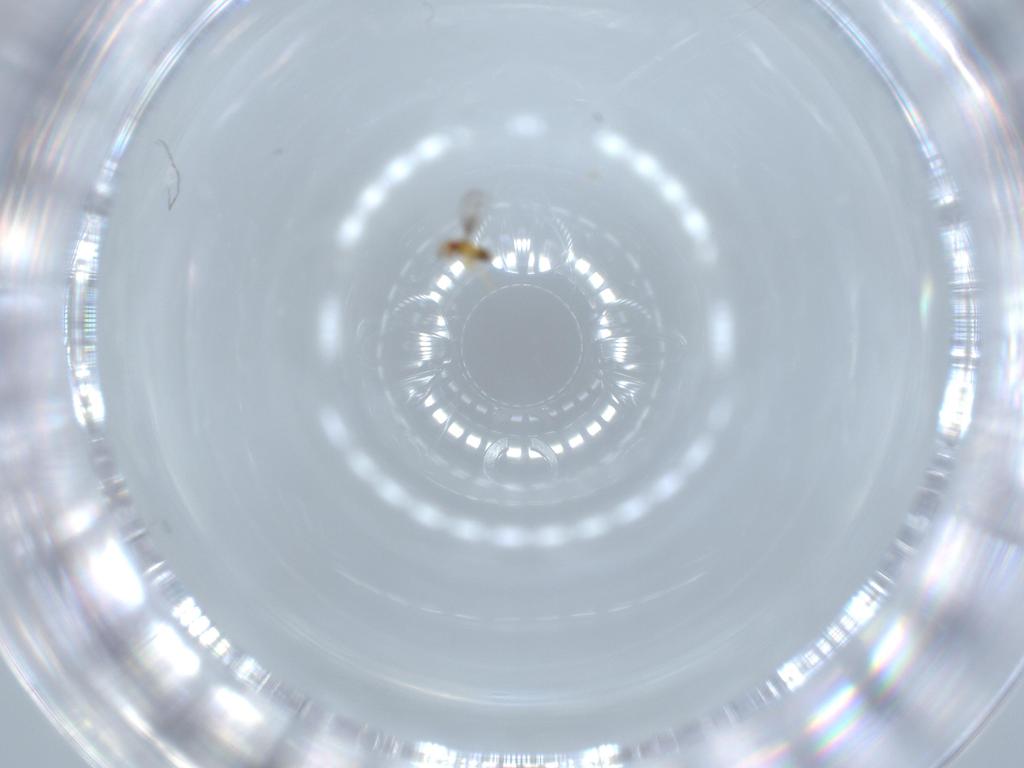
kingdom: Animalia
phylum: Arthropoda
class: Insecta
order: Hymenoptera
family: Trichogrammatidae
